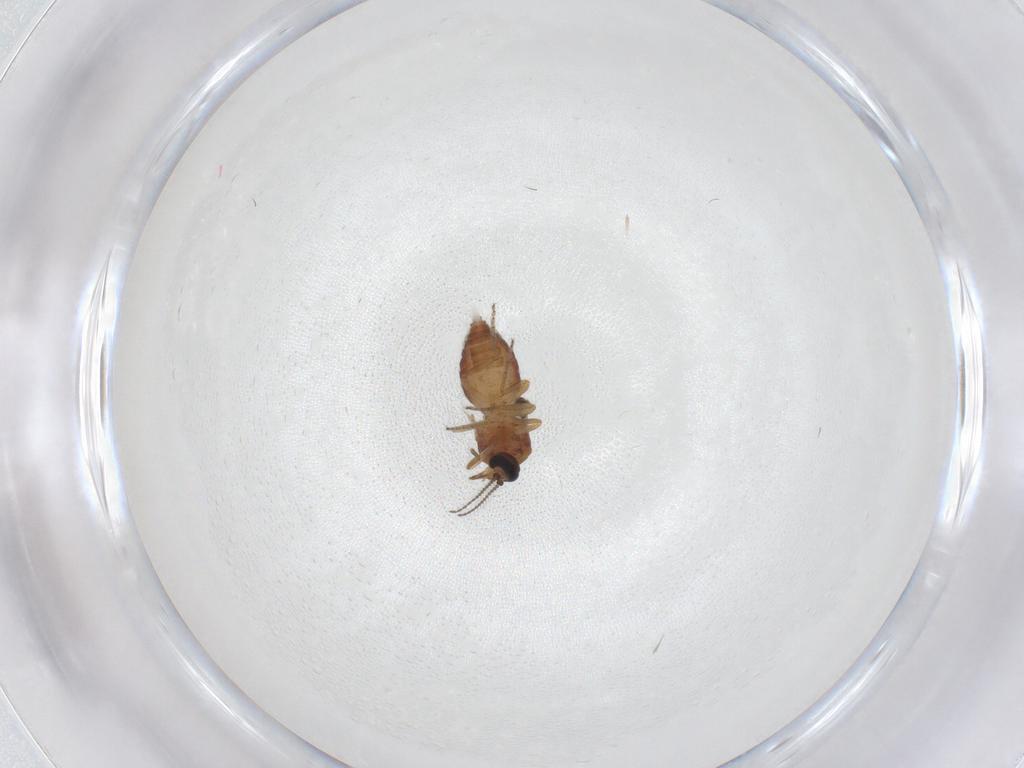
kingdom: Animalia
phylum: Arthropoda
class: Insecta
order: Diptera
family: Ceratopogonidae
